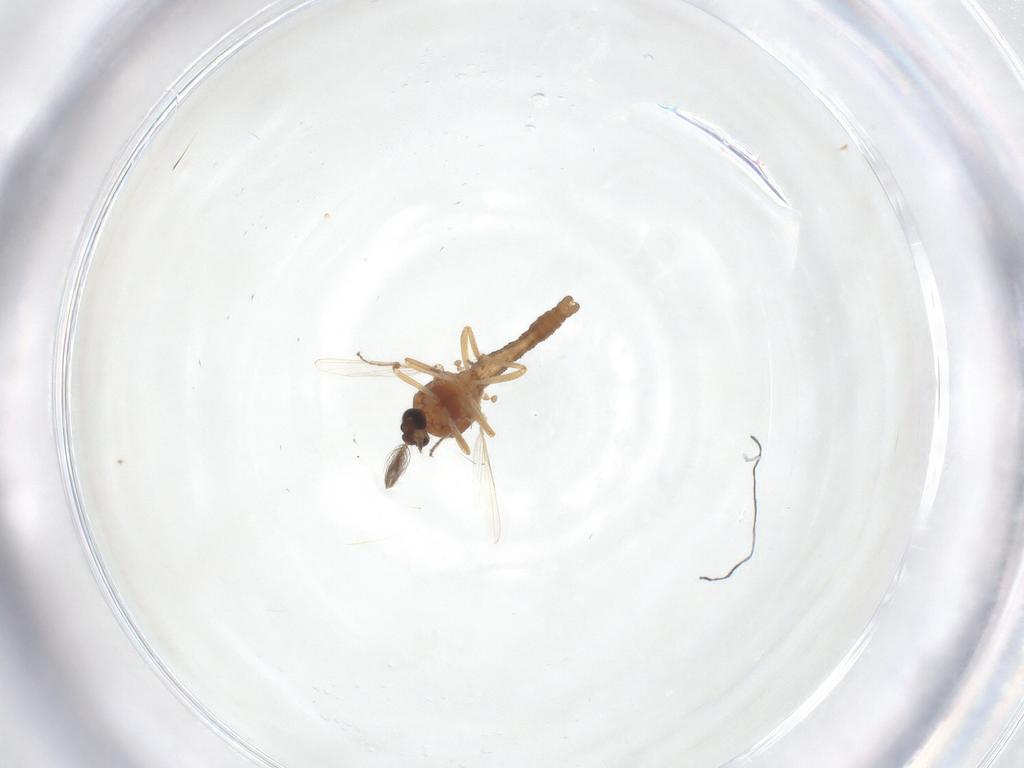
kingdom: Animalia
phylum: Arthropoda
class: Insecta
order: Diptera
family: Ceratopogonidae
